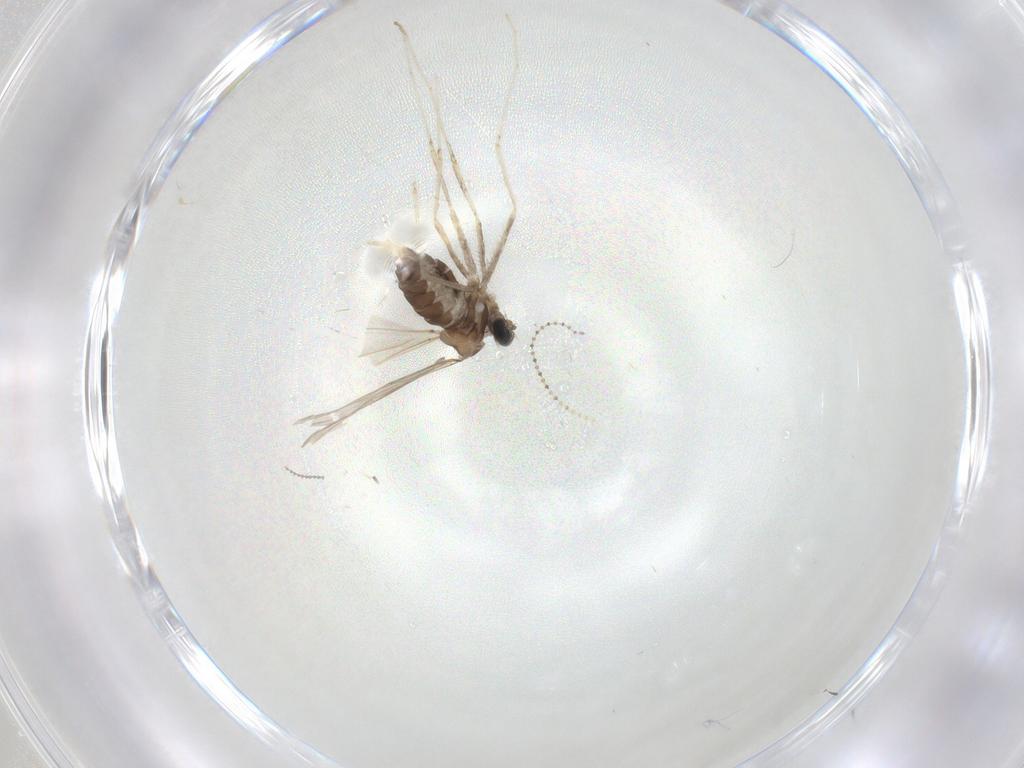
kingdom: Animalia
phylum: Arthropoda
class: Insecta
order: Diptera
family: Cecidomyiidae
